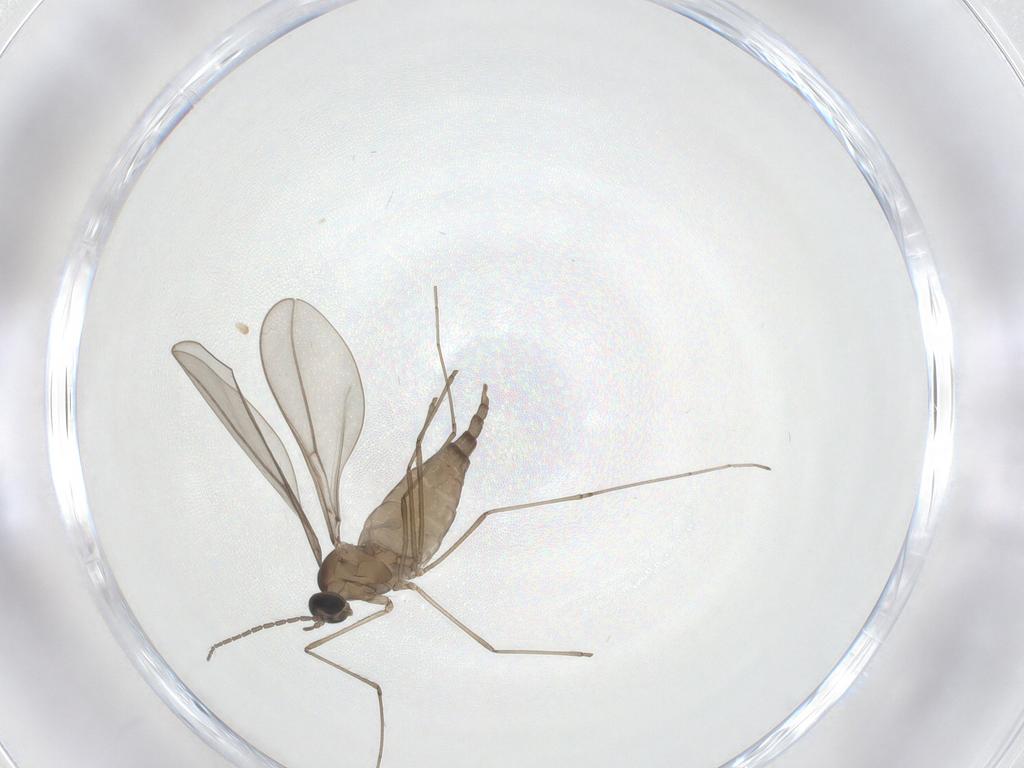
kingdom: Animalia
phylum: Arthropoda
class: Insecta
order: Diptera
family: Cecidomyiidae
